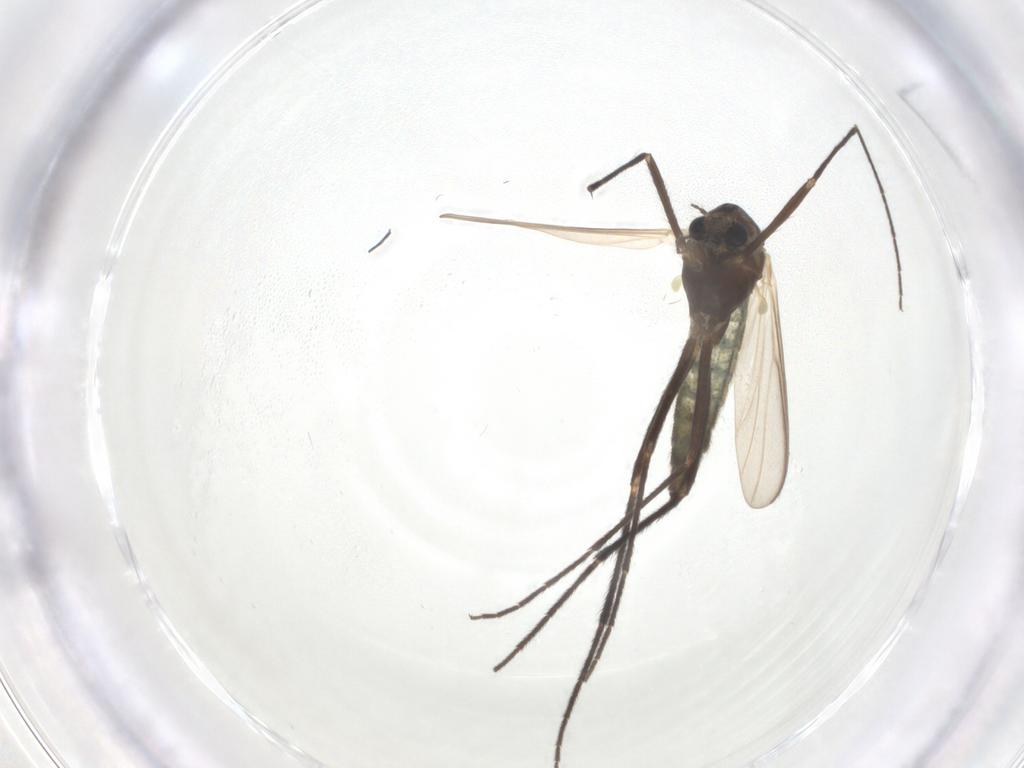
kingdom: Animalia
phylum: Arthropoda
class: Insecta
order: Diptera
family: Chironomidae
